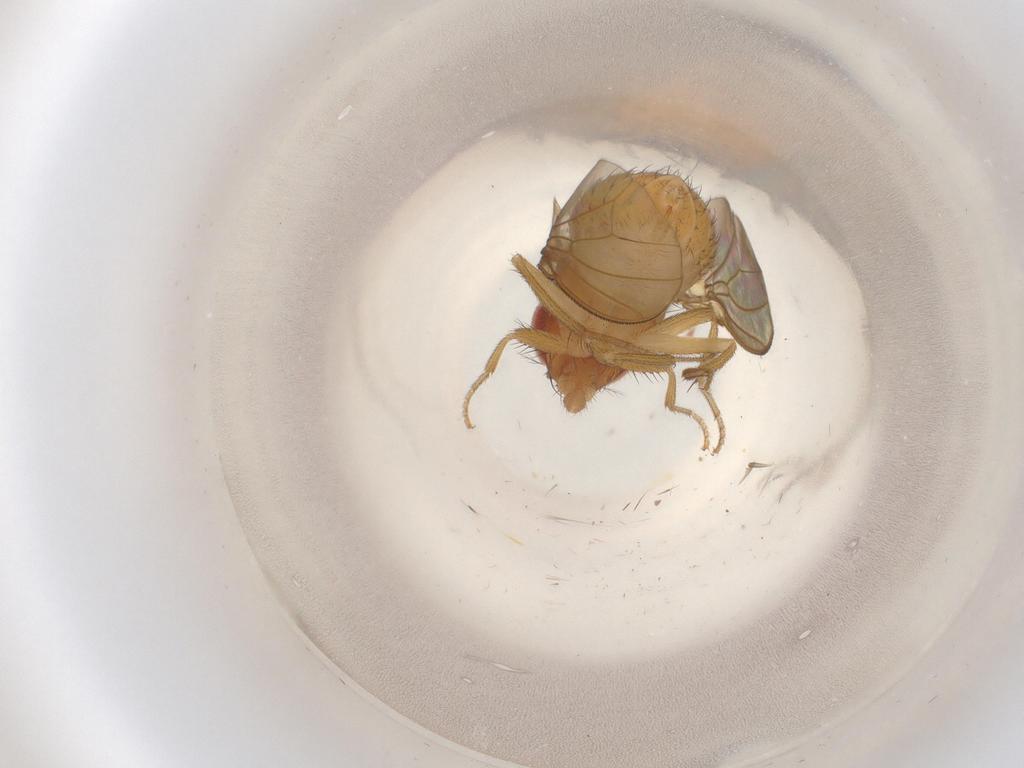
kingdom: Animalia
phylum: Arthropoda
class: Insecta
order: Diptera
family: Drosophilidae
